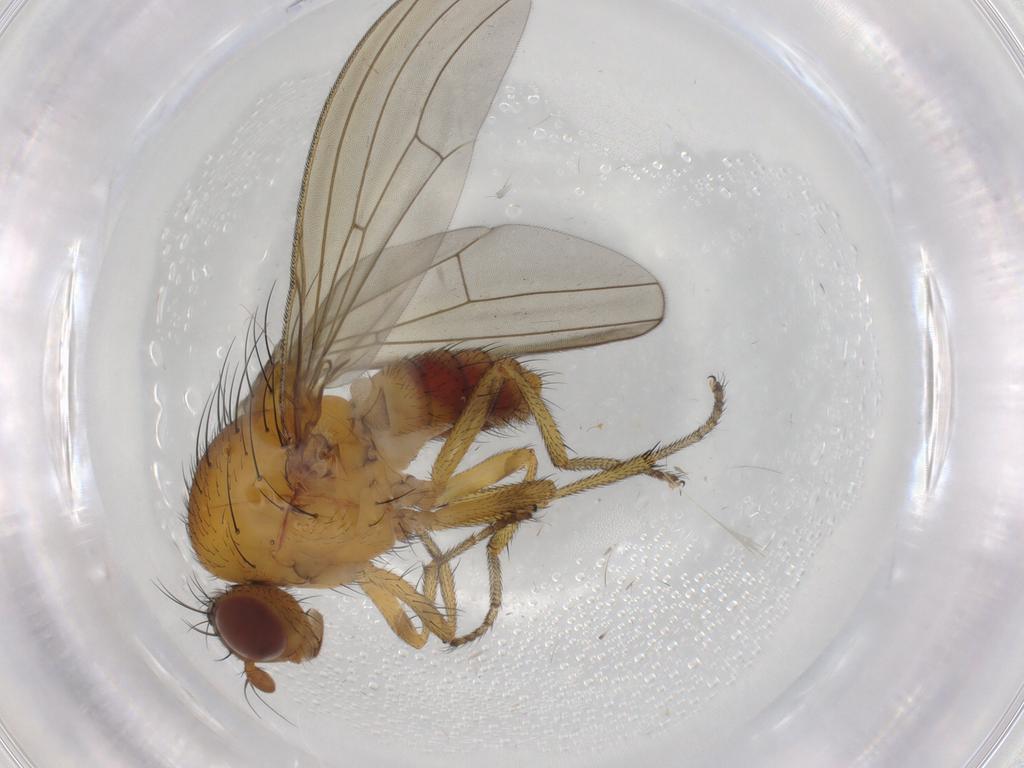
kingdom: Animalia
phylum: Arthropoda
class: Insecta
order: Diptera
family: Lauxaniidae
